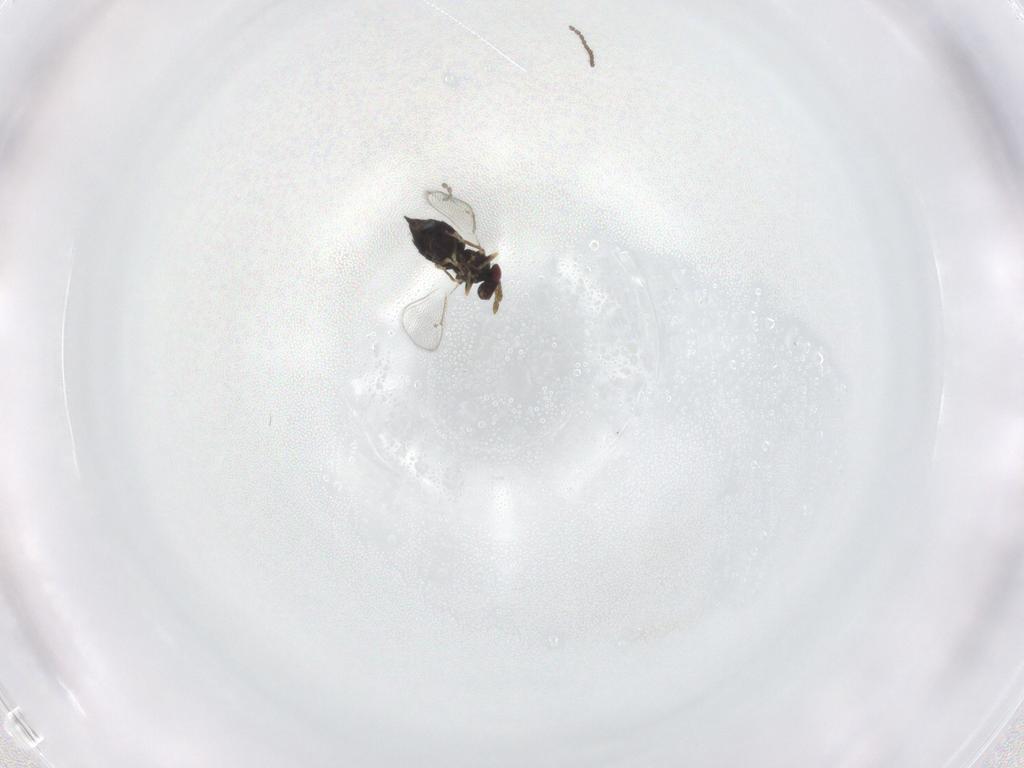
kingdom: Animalia
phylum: Arthropoda
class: Insecta
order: Hymenoptera
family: Eulophidae
